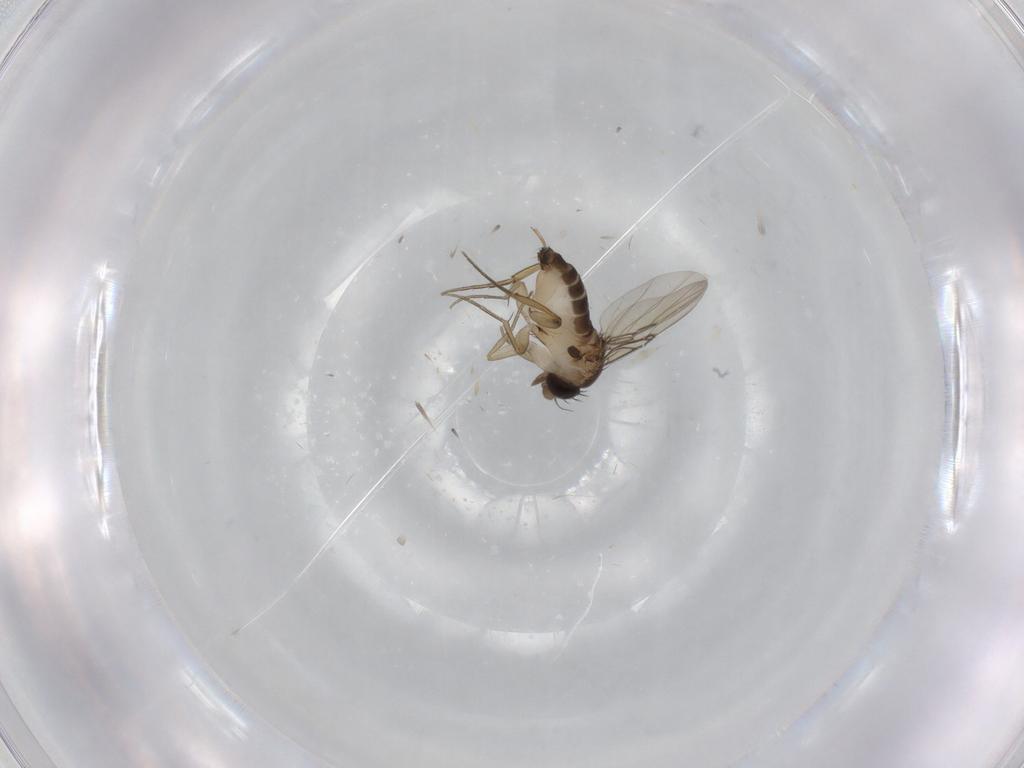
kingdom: Animalia
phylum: Arthropoda
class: Insecta
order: Diptera
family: Phoridae
